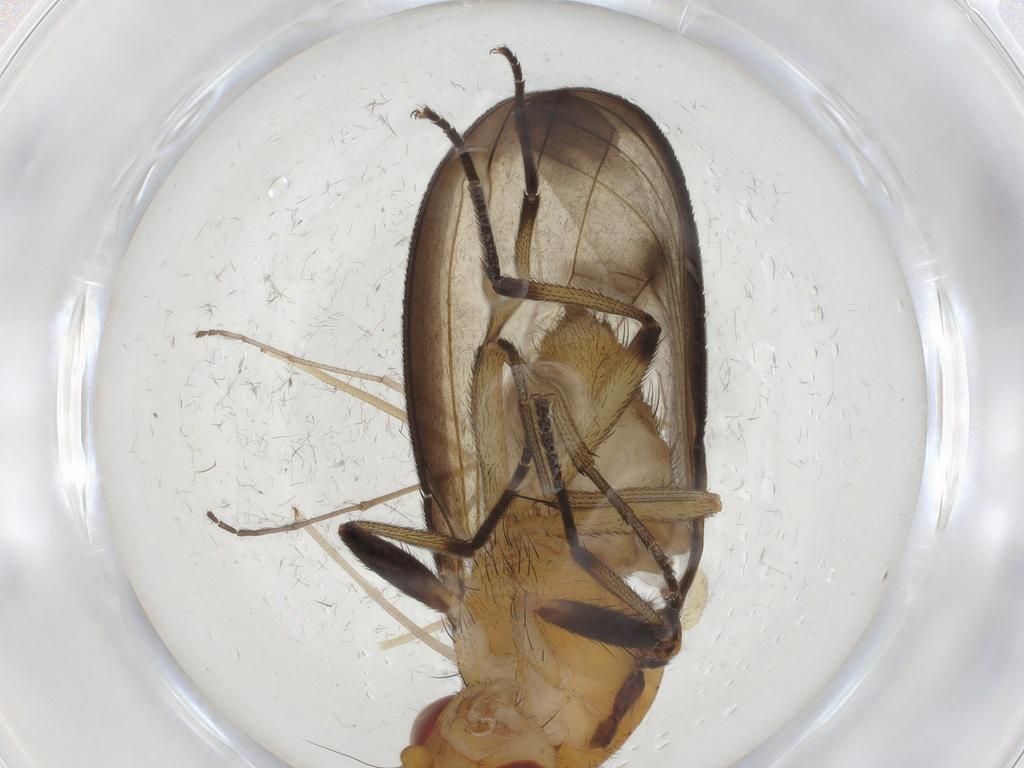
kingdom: Animalia
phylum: Arthropoda
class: Insecta
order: Diptera
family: Heleomyzidae
